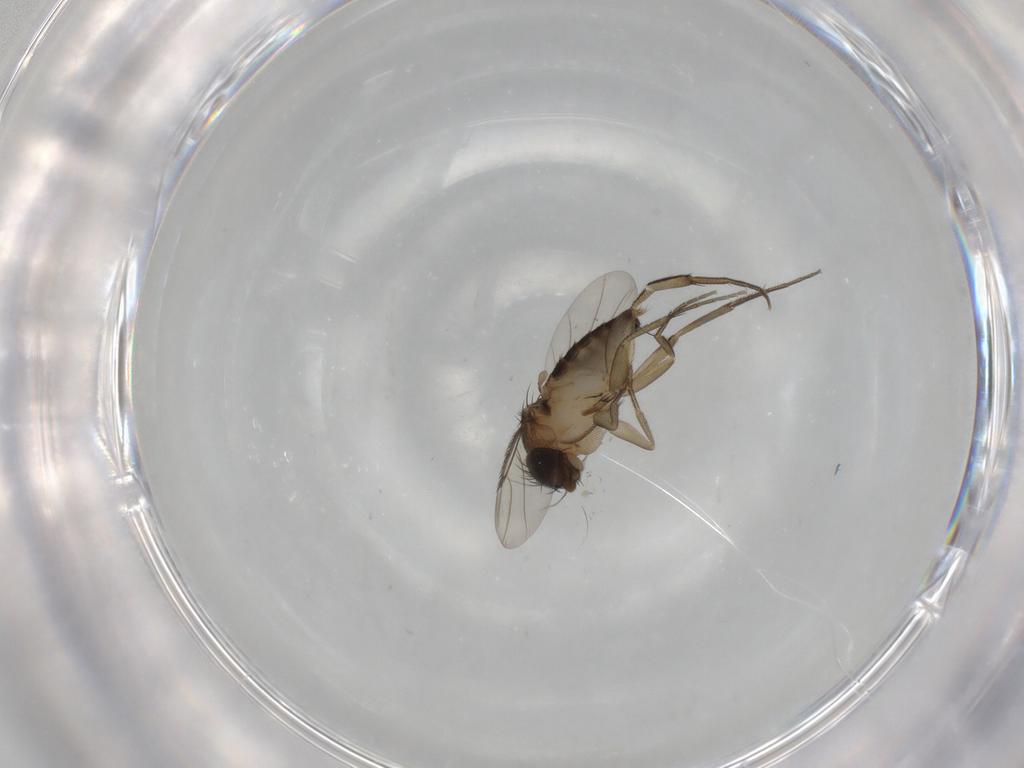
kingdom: Animalia
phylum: Arthropoda
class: Insecta
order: Diptera
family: Phoridae
